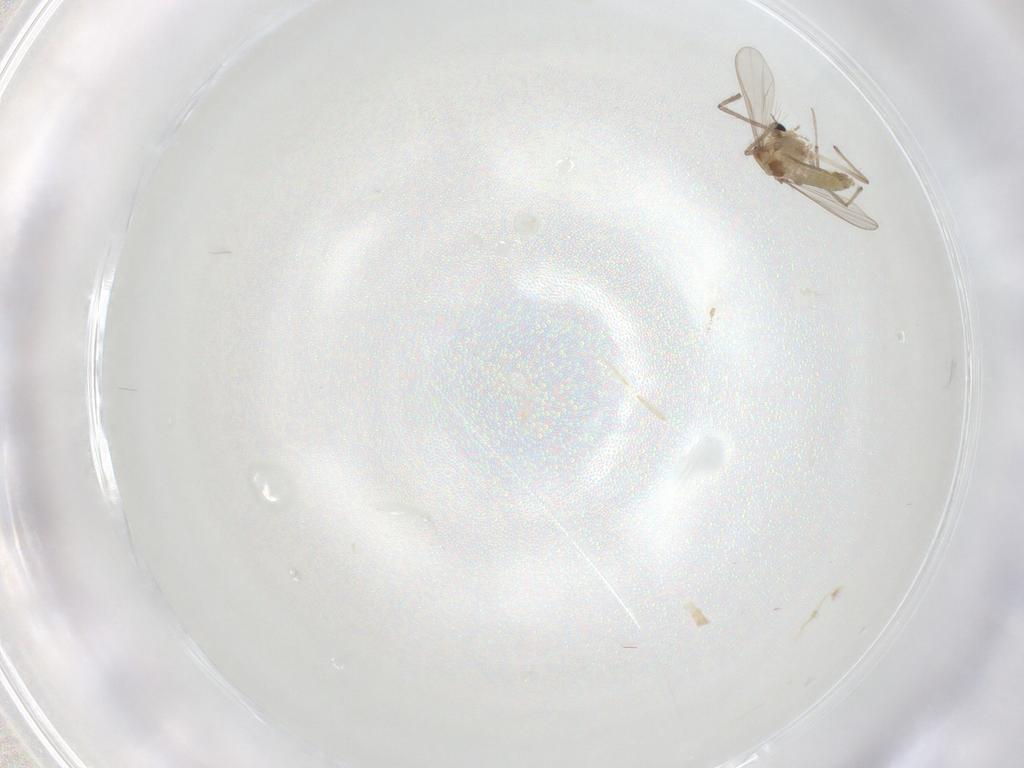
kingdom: Animalia
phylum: Arthropoda
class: Insecta
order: Diptera
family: Chironomidae
